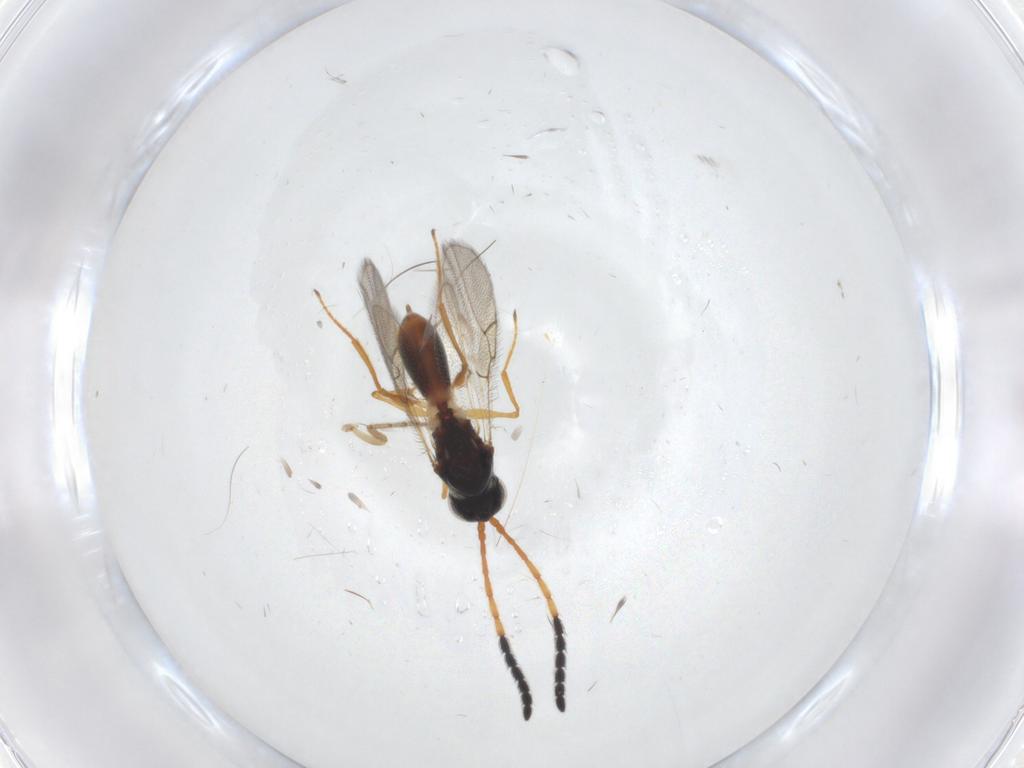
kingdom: Animalia
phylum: Arthropoda
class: Insecta
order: Hymenoptera
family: Figitidae
